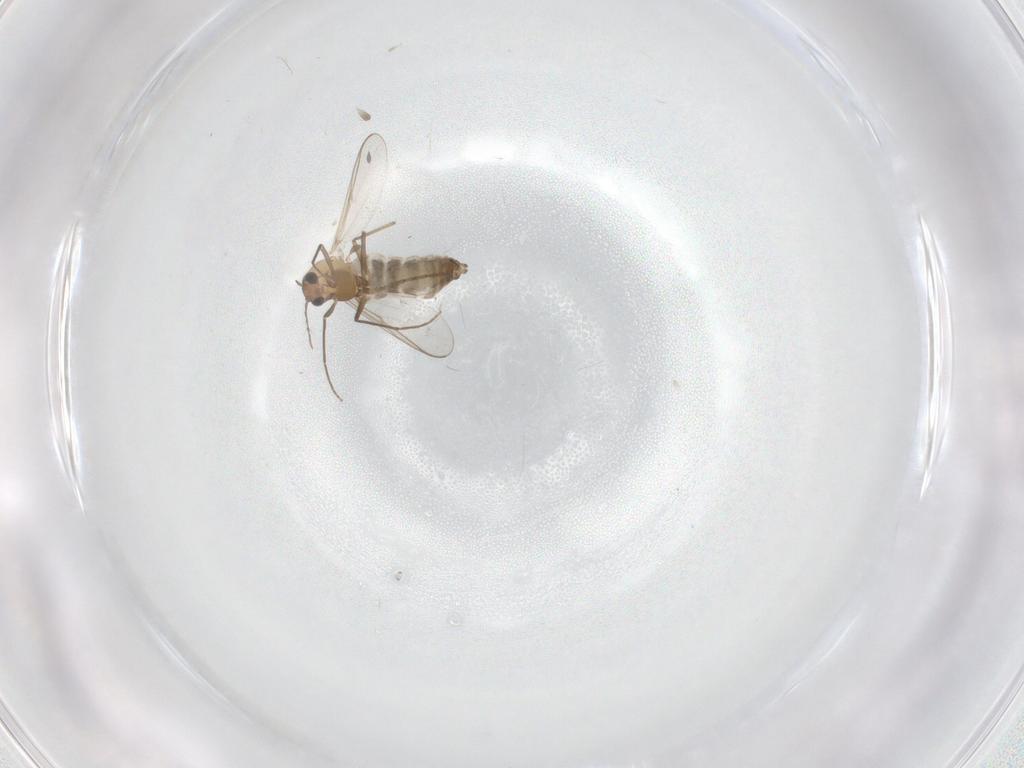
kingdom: Animalia
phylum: Arthropoda
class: Insecta
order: Diptera
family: Chironomidae
